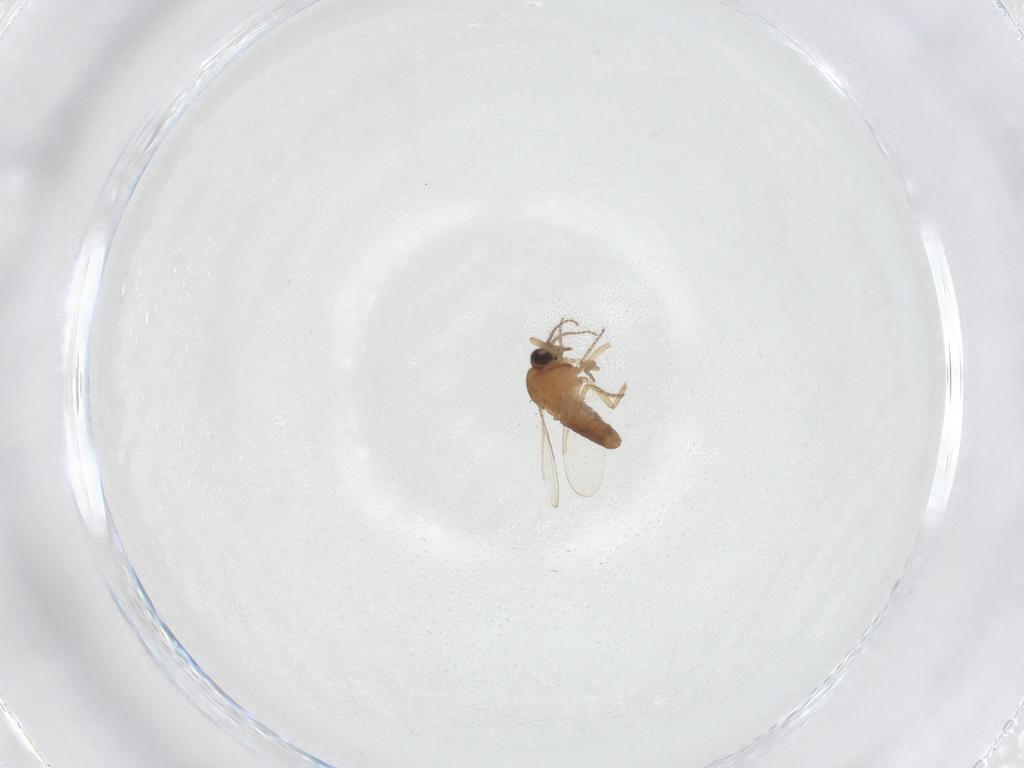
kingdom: Animalia
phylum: Arthropoda
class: Insecta
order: Diptera
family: Ceratopogonidae
